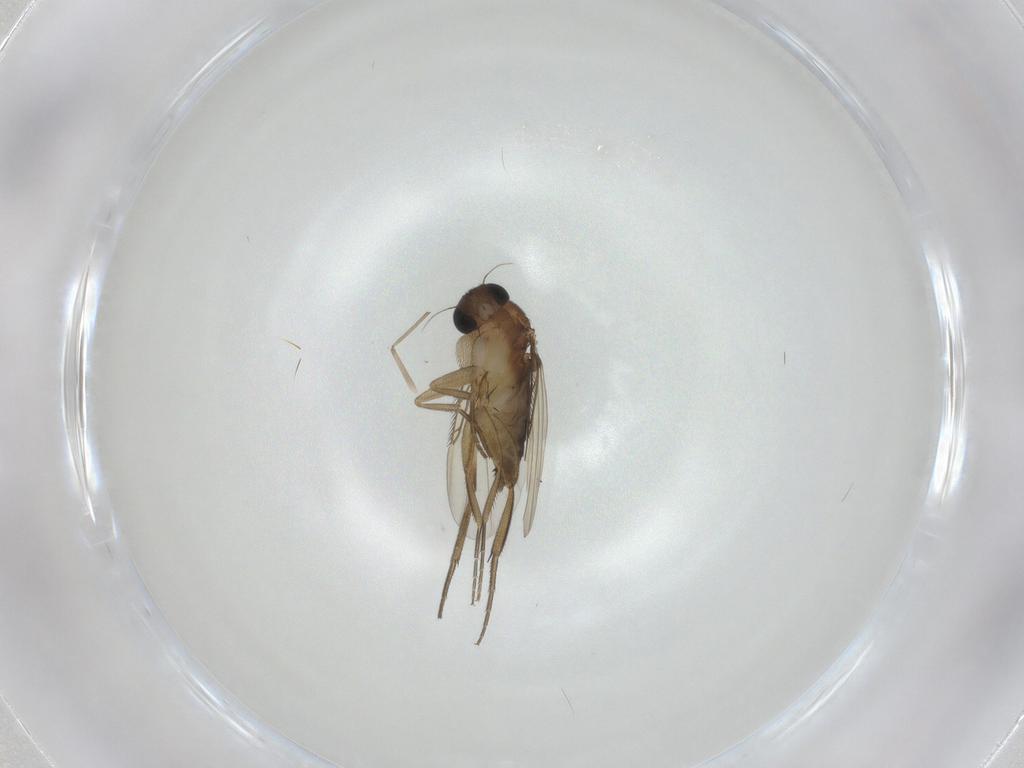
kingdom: Animalia
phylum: Arthropoda
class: Insecta
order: Diptera
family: Phoridae
